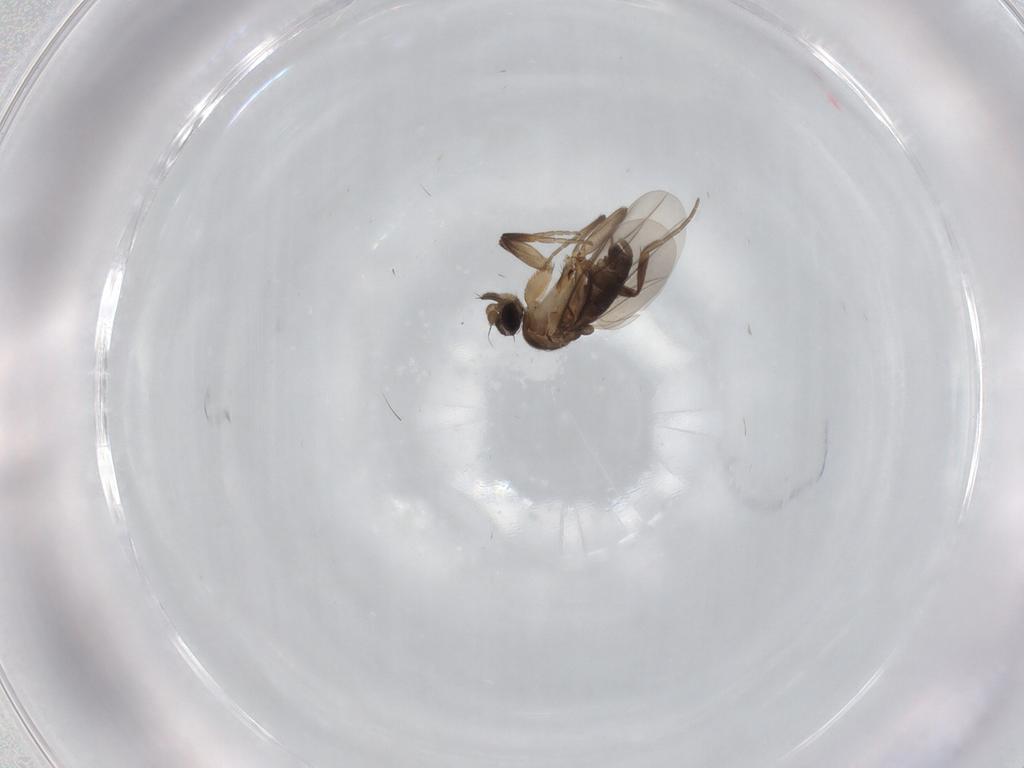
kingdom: Animalia
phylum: Arthropoda
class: Insecta
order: Diptera
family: Phoridae
